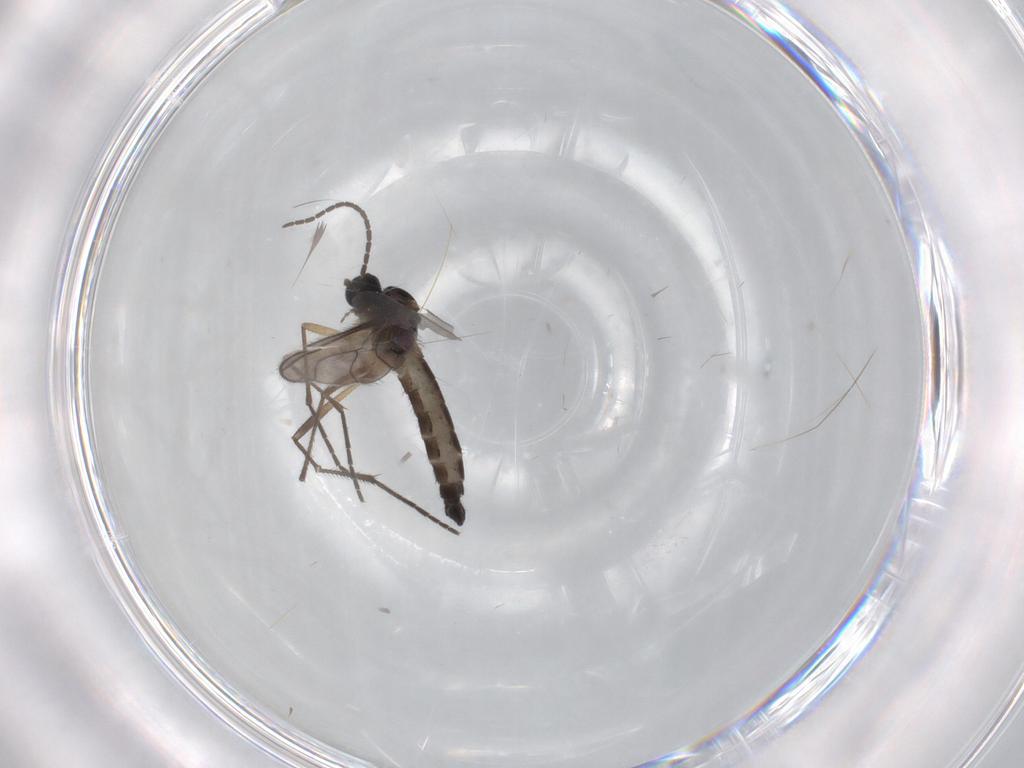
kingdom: Animalia
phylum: Arthropoda
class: Insecta
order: Diptera
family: Sciaridae
